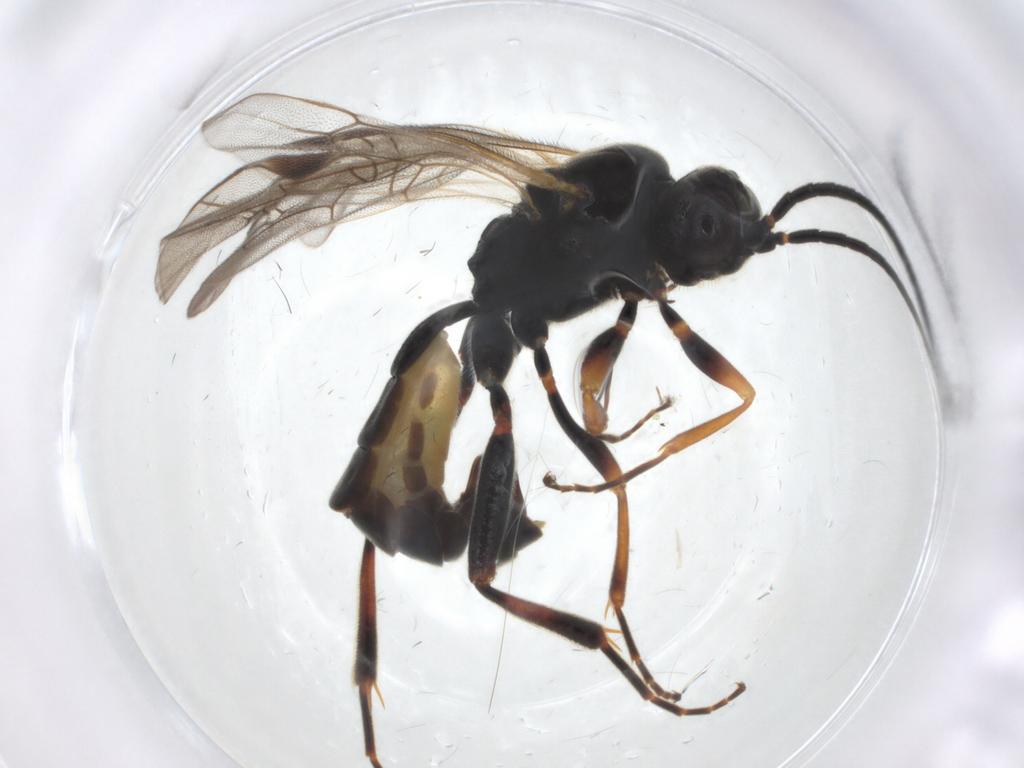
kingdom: Animalia
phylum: Arthropoda
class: Insecta
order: Hymenoptera
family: Ichneumonidae
